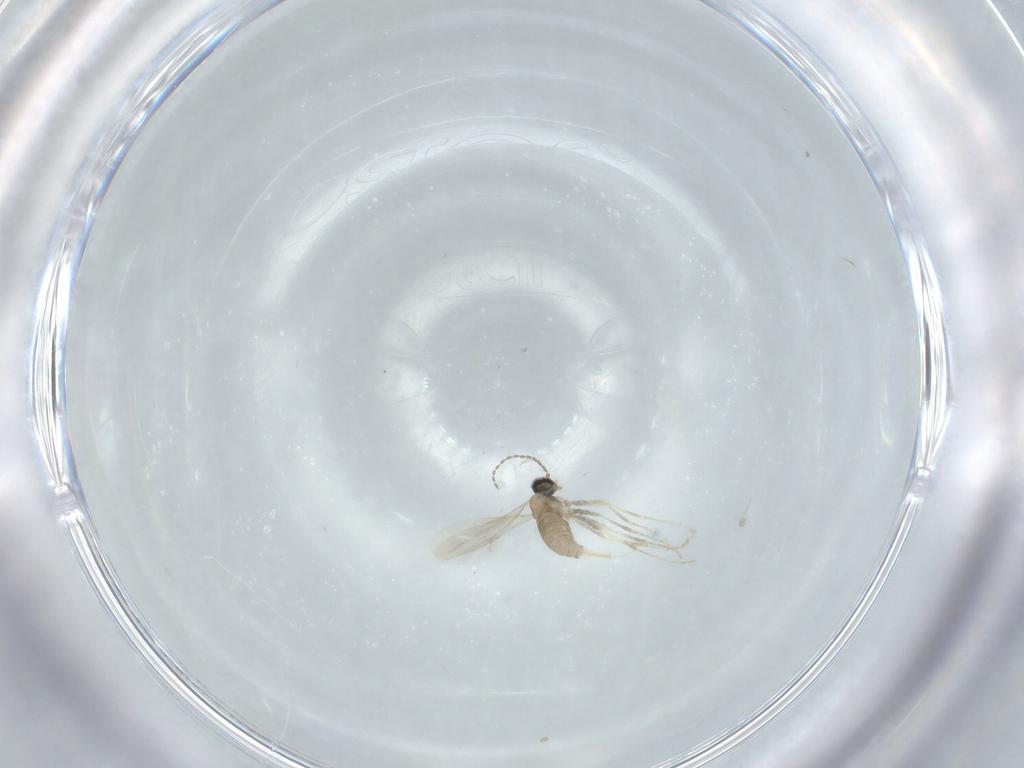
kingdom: Animalia
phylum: Arthropoda
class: Insecta
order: Diptera
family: Cecidomyiidae
